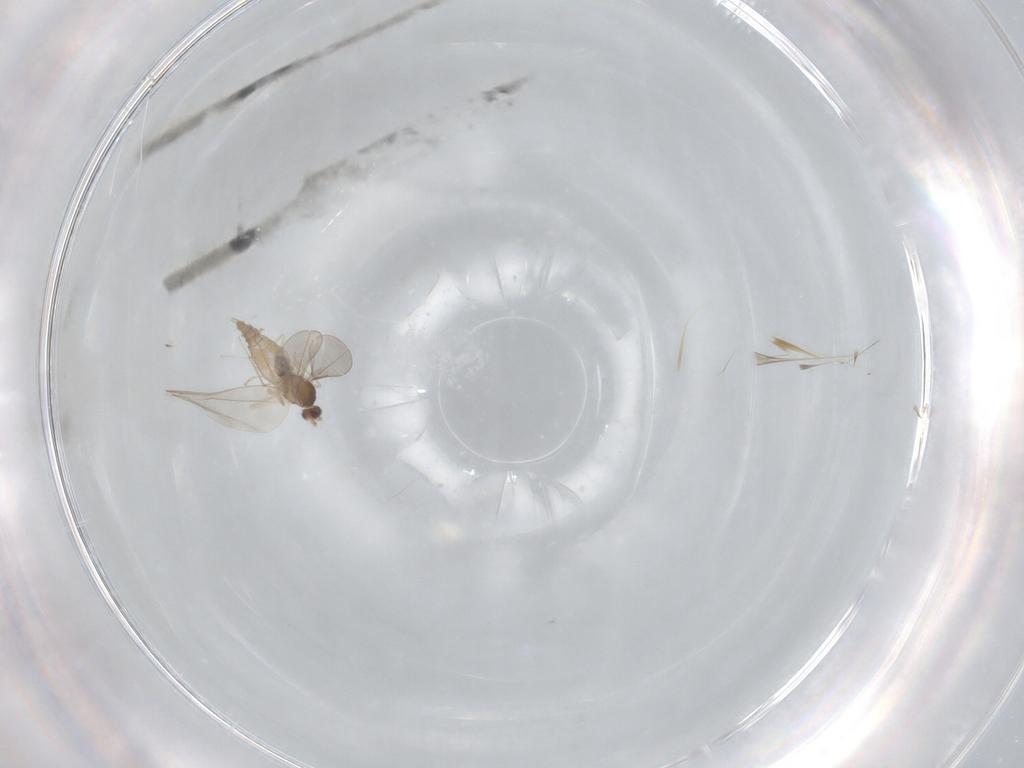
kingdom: Animalia
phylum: Arthropoda
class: Insecta
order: Diptera
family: Cecidomyiidae
